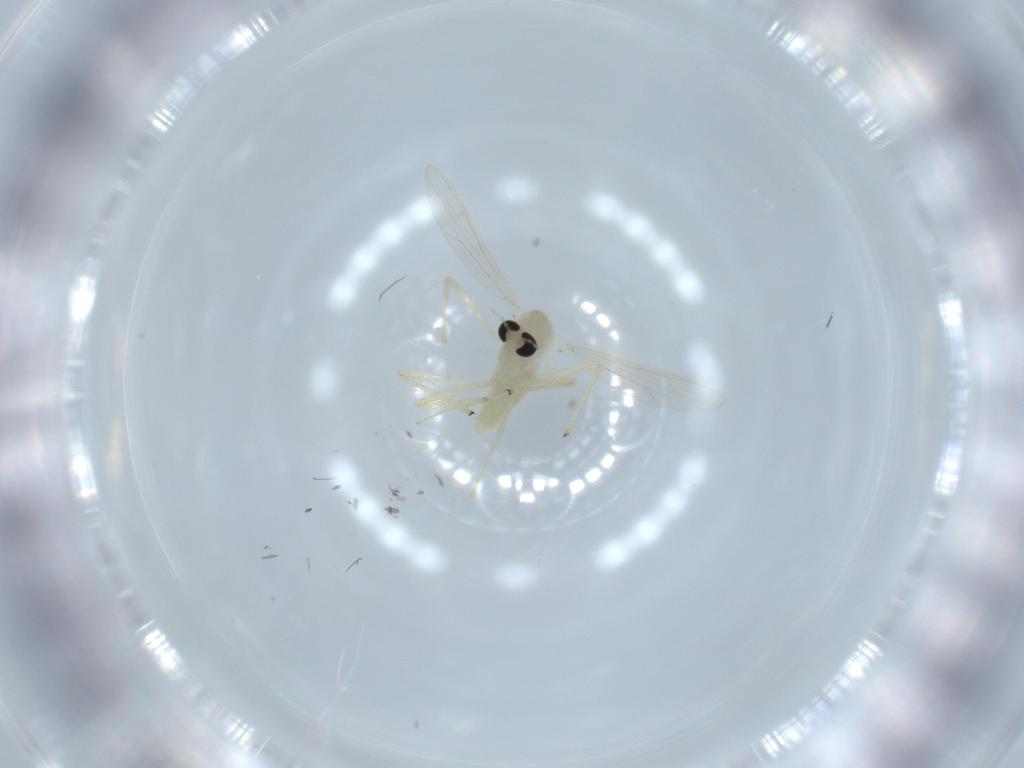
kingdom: Animalia
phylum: Arthropoda
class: Insecta
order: Diptera
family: Chironomidae
